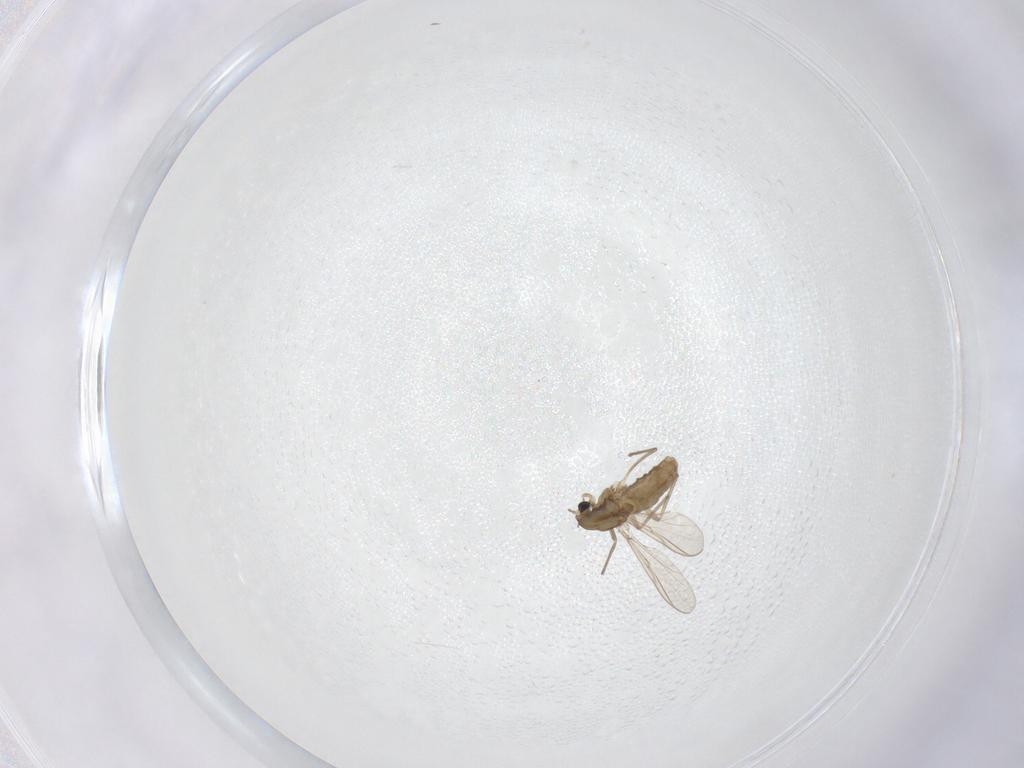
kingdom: Animalia
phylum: Arthropoda
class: Insecta
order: Diptera
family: Chironomidae
